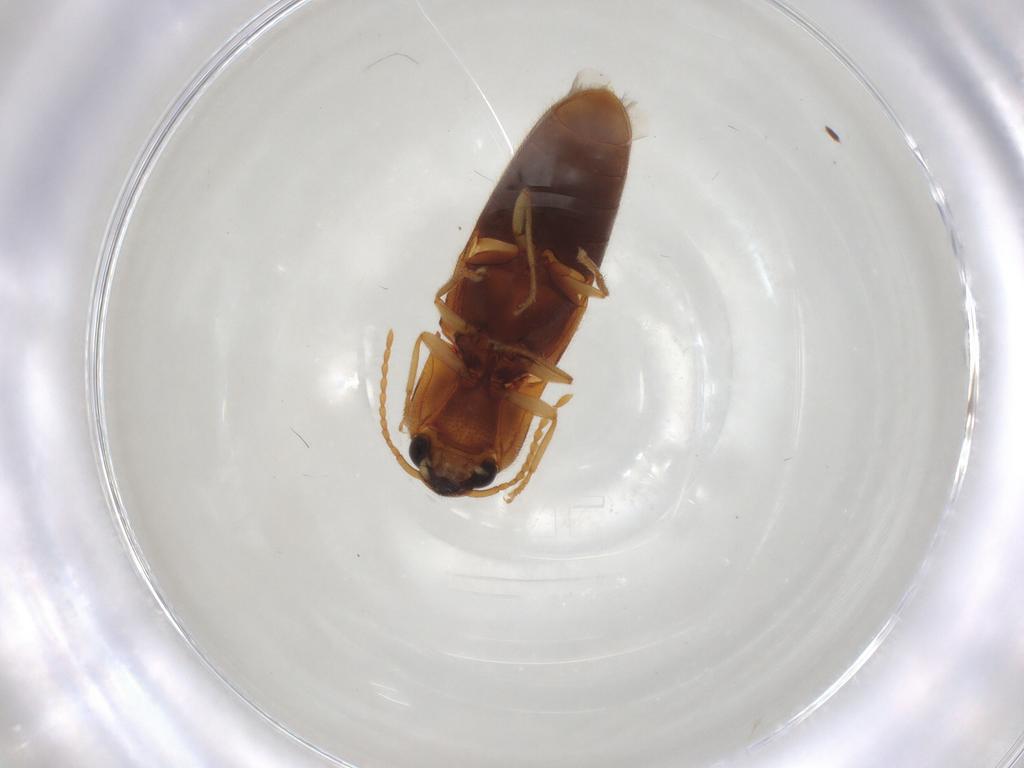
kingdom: Animalia
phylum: Arthropoda
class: Insecta
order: Coleoptera
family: Elateridae
